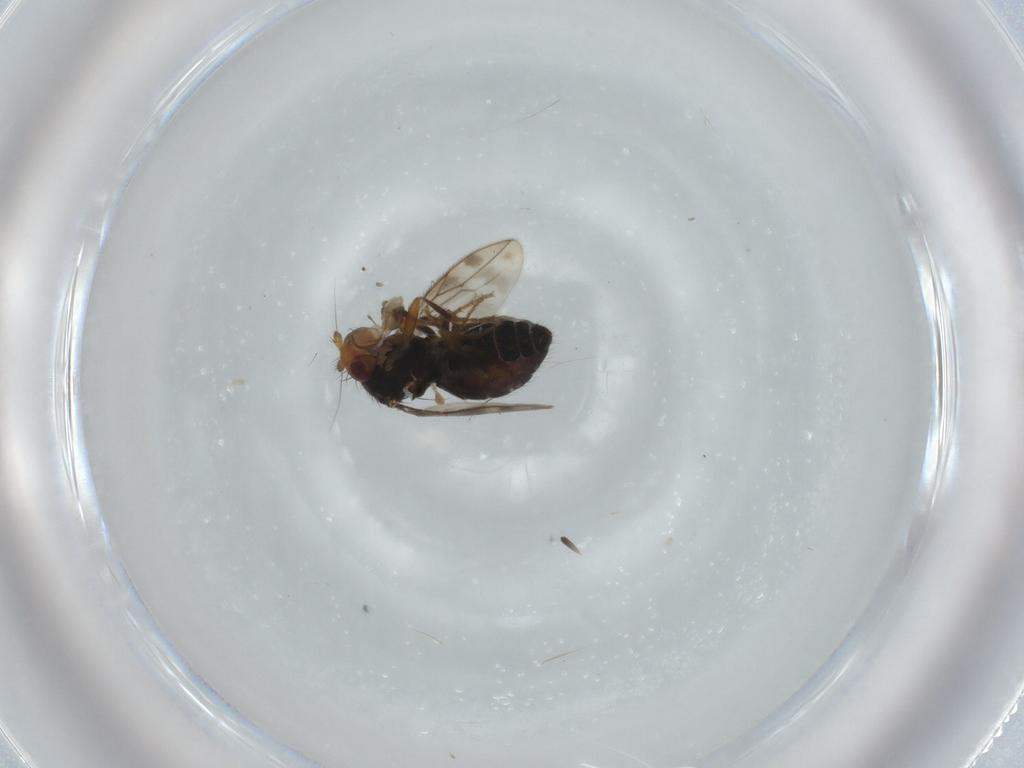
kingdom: Animalia
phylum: Arthropoda
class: Insecta
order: Diptera
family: Sphaeroceridae
